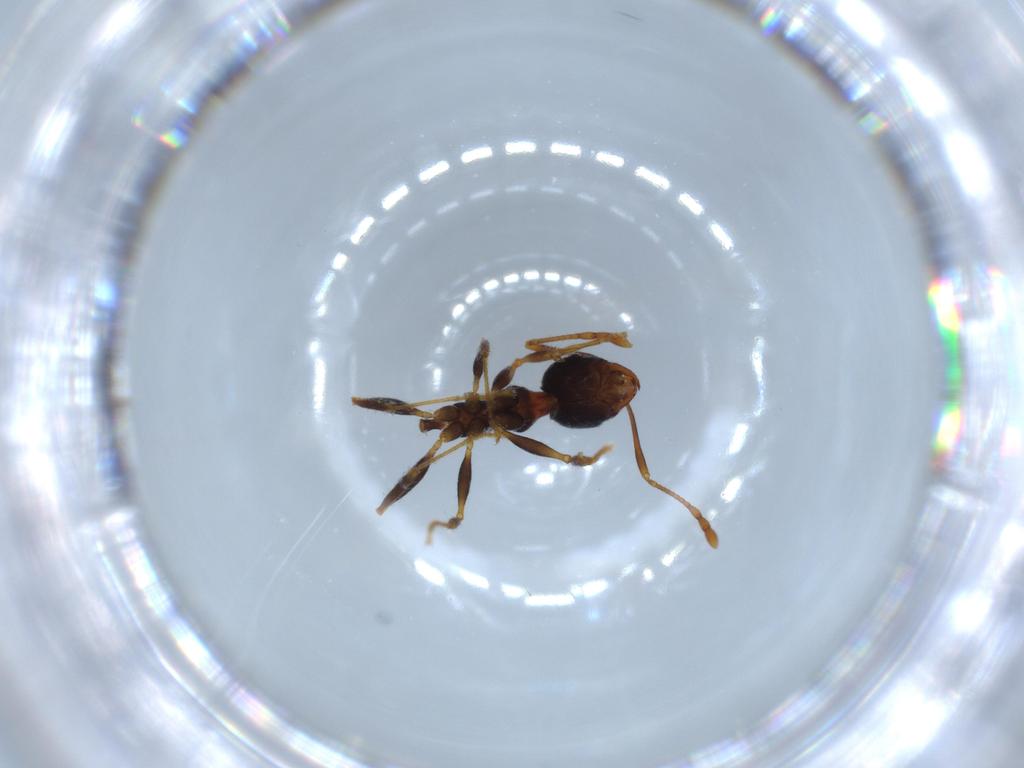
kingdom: Animalia
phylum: Arthropoda
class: Insecta
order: Hymenoptera
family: Formicidae
